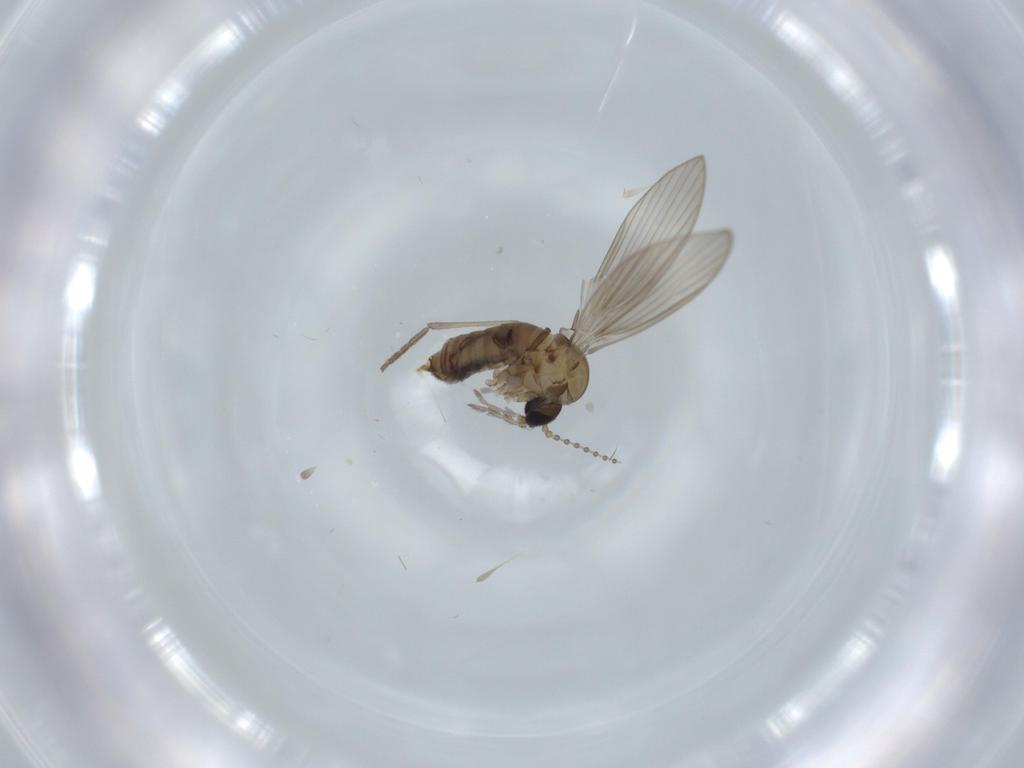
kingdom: Animalia
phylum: Arthropoda
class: Insecta
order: Diptera
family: Psychodidae
